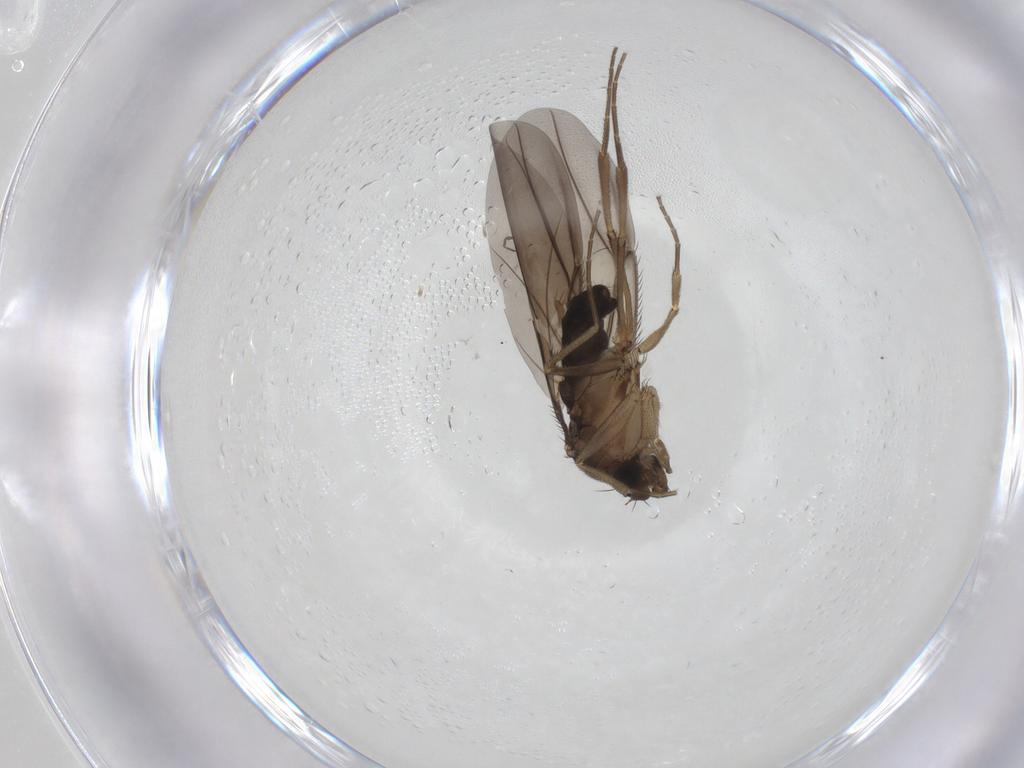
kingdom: Animalia
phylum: Arthropoda
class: Insecta
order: Diptera
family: Phoridae
